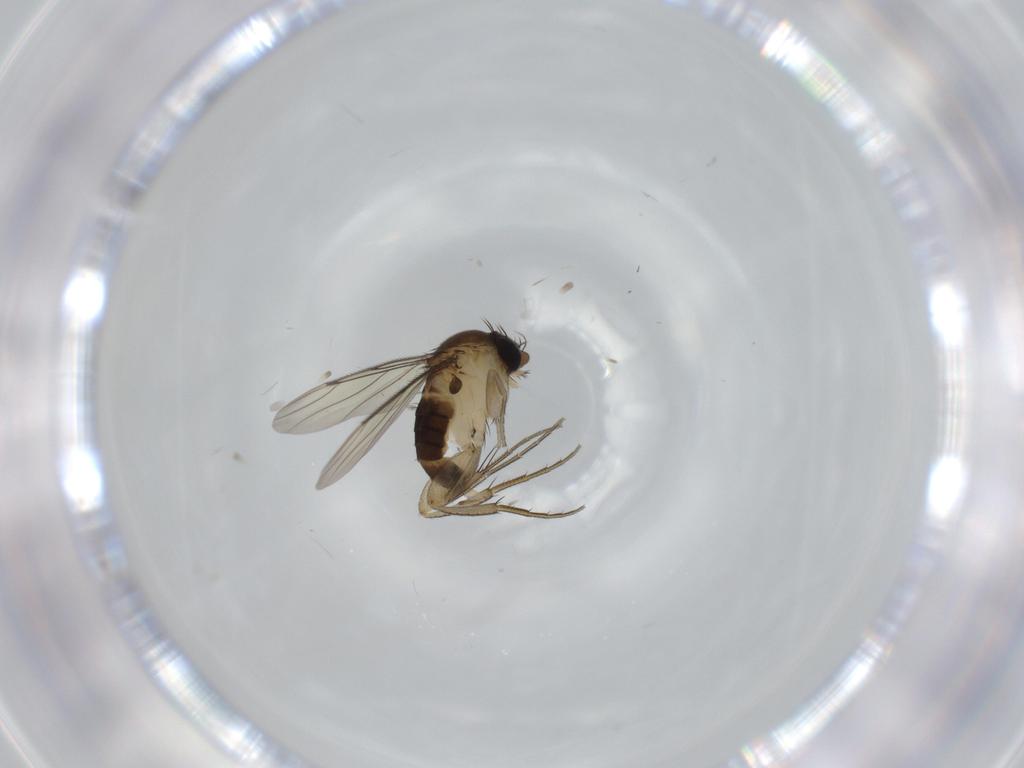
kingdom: Animalia
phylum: Arthropoda
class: Insecta
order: Diptera
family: Phoridae
